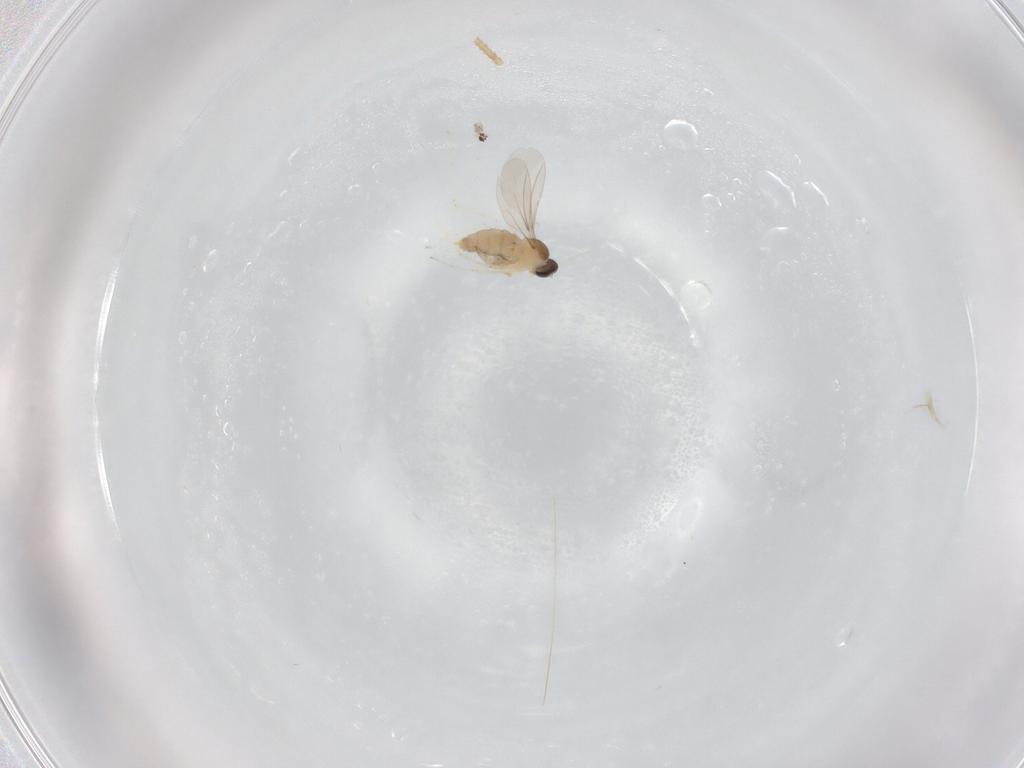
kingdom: Animalia
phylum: Arthropoda
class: Insecta
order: Diptera
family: Cecidomyiidae
